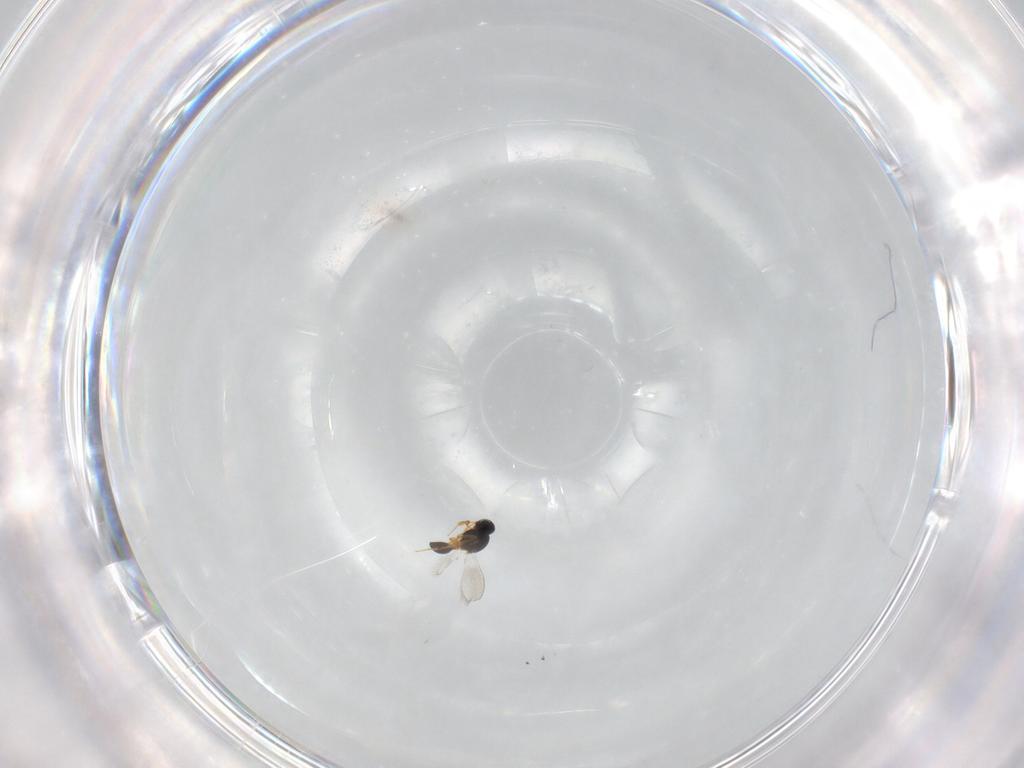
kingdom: Animalia
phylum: Arthropoda
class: Insecta
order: Hymenoptera
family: Platygastridae
